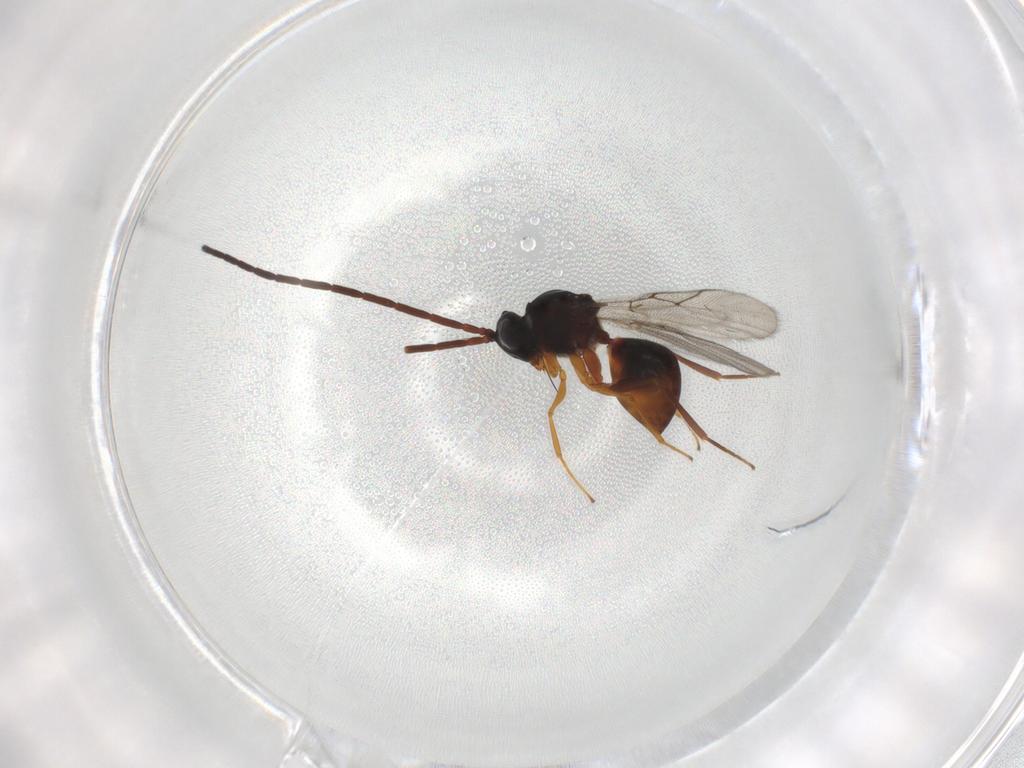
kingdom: Animalia
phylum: Arthropoda
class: Insecta
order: Hymenoptera
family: Figitidae
